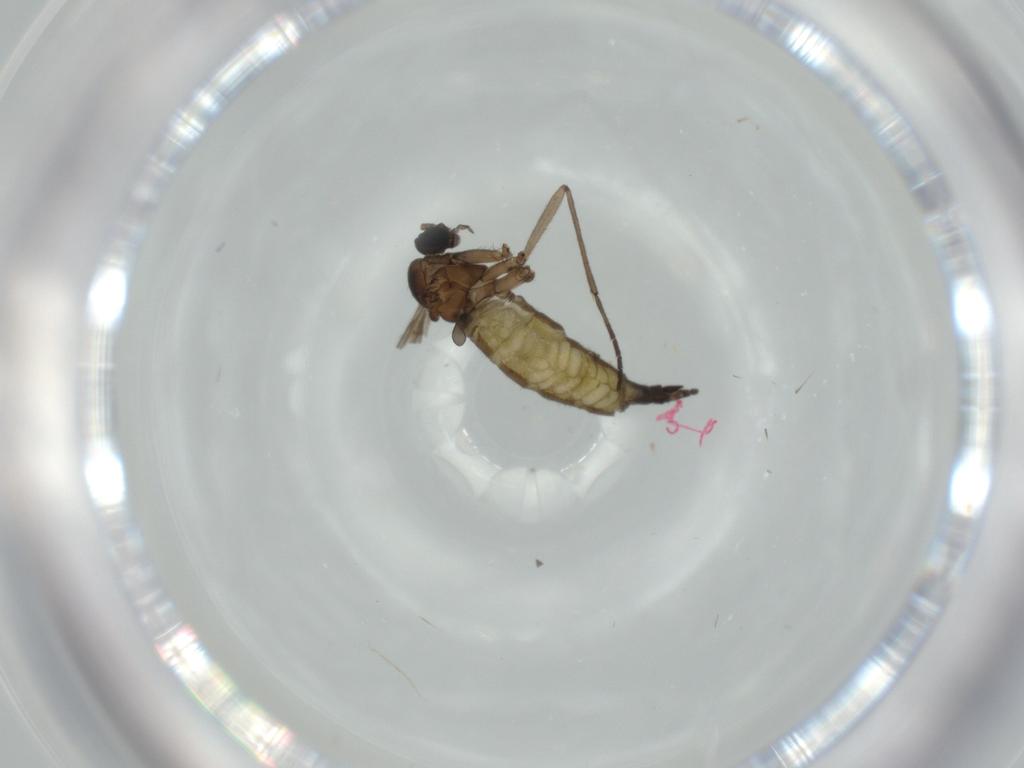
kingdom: Animalia
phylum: Arthropoda
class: Insecta
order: Diptera
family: Sciaridae
